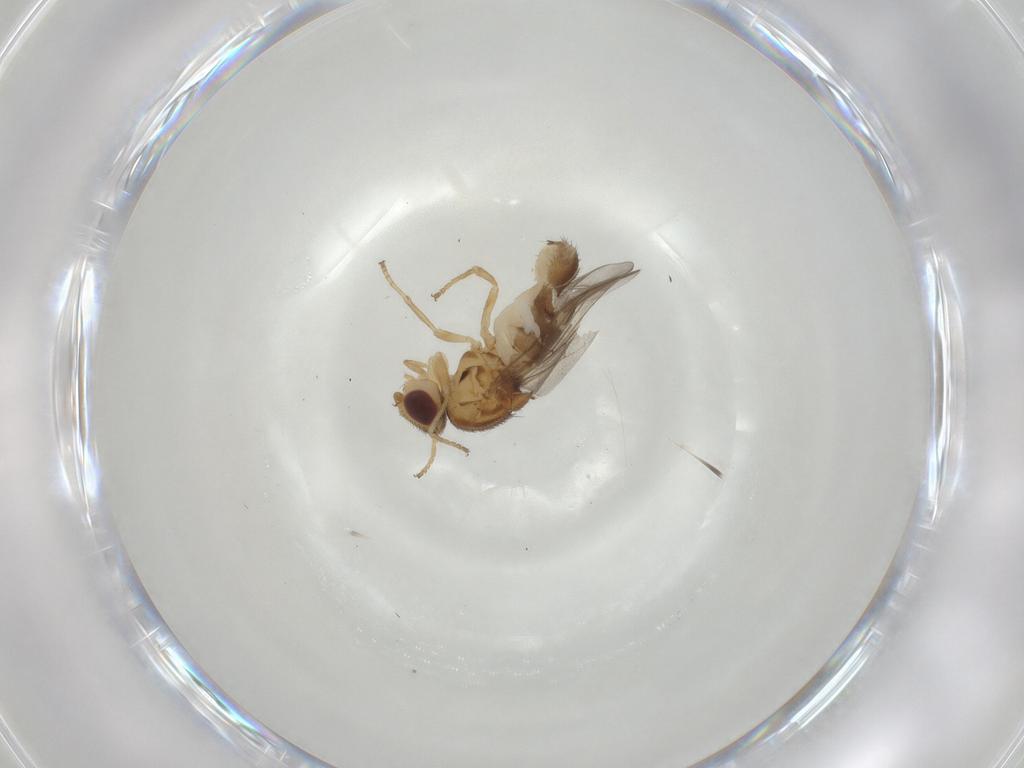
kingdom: Animalia
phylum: Arthropoda
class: Insecta
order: Diptera
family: Chloropidae
